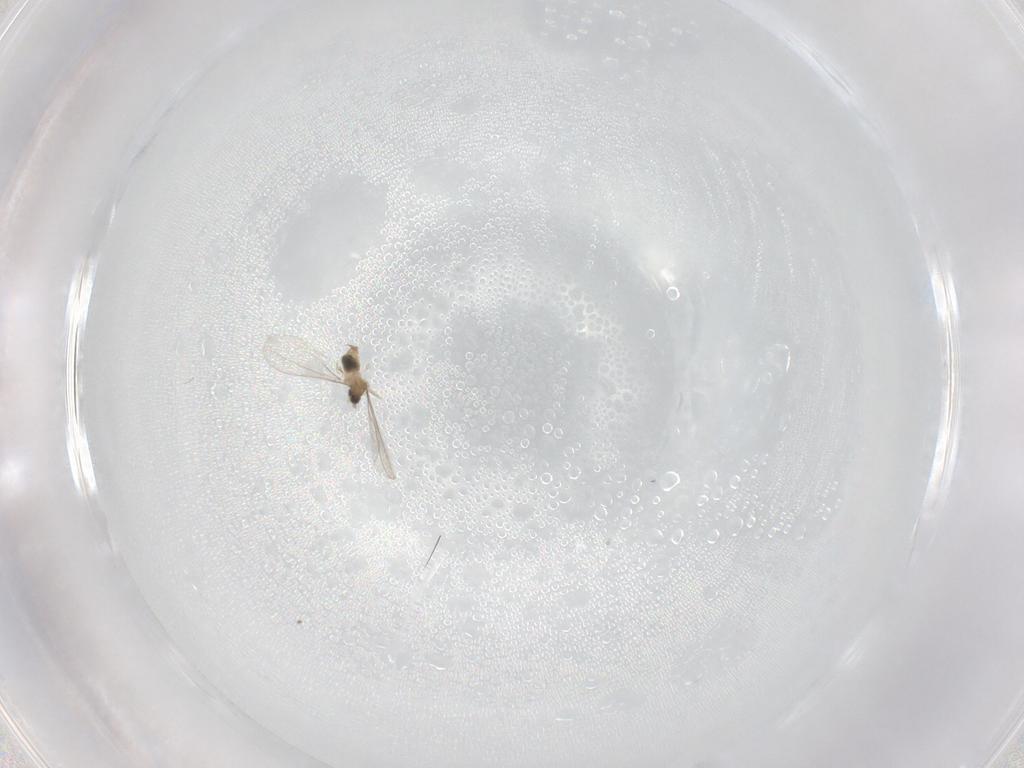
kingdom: Animalia
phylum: Arthropoda
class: Insecta
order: Diptera
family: Cecidomyiidae
